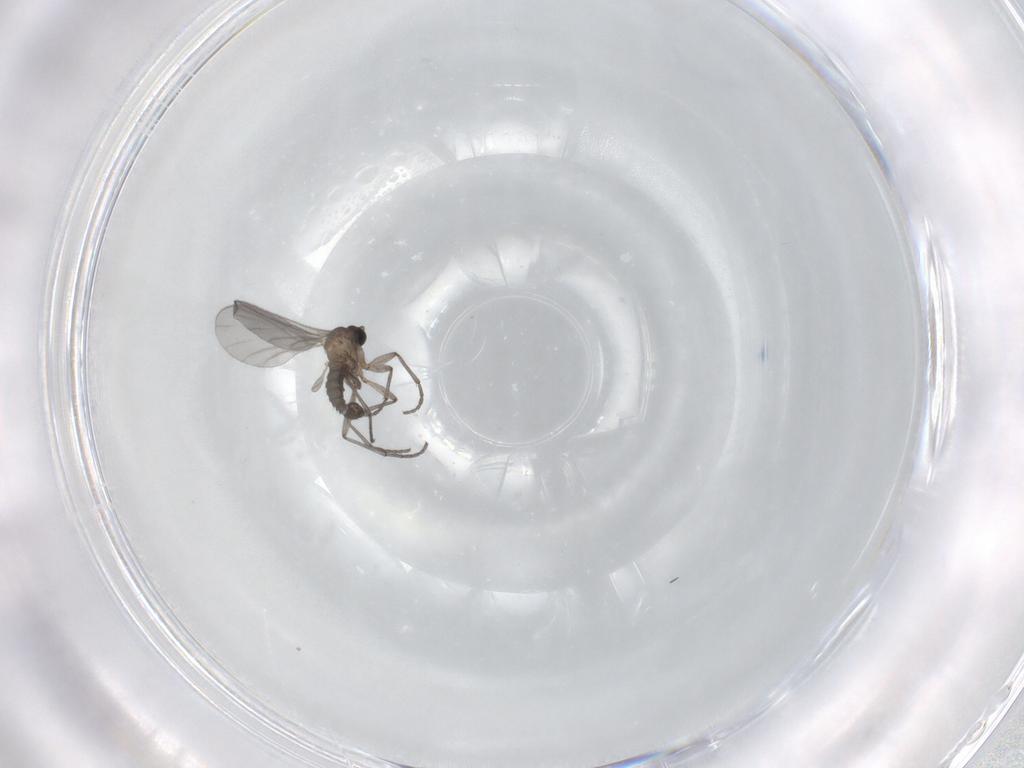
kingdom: Animalia
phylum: Arthropoda
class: Insecta
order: Diptera
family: Sciaridae
